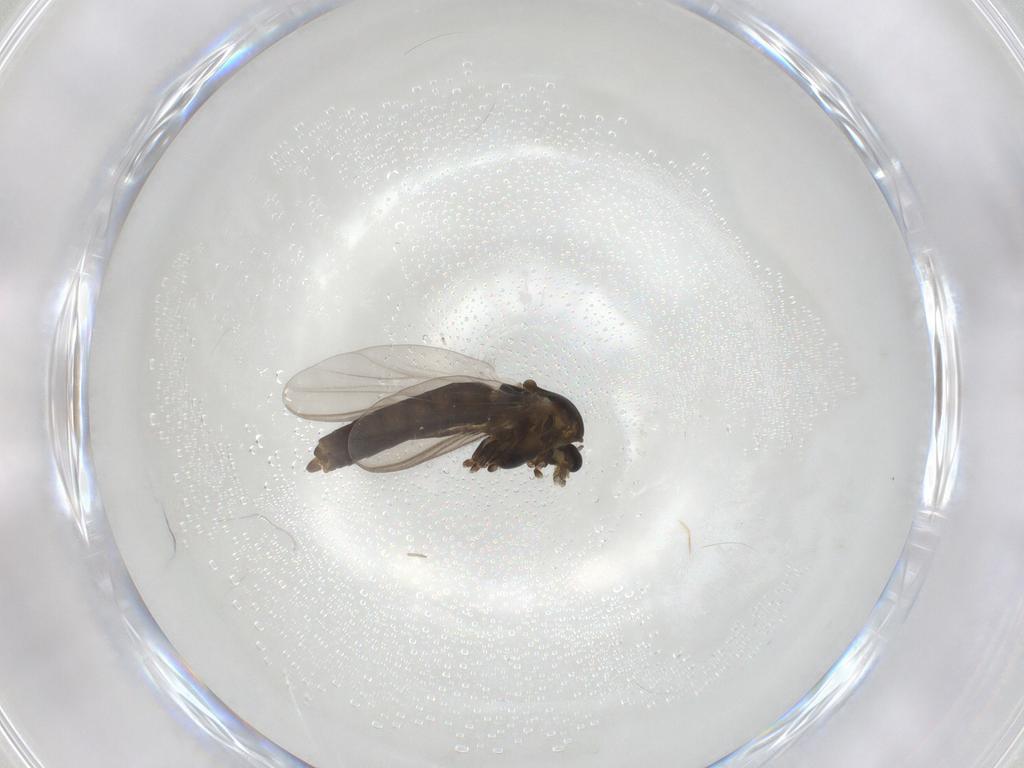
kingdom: Animalia
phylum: Arthropoda
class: Insecta
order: Diptera
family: Chironomidae
